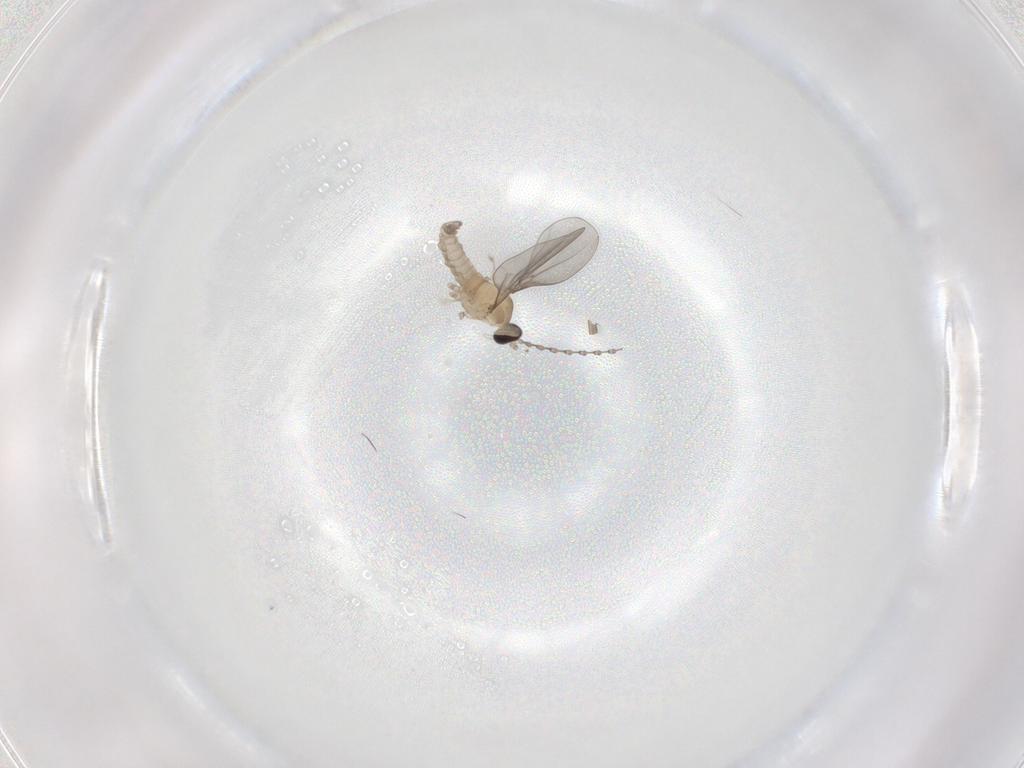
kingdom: Animalia
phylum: Arthropoda
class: Insecta
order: Diptera
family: Cecidomyiidae
